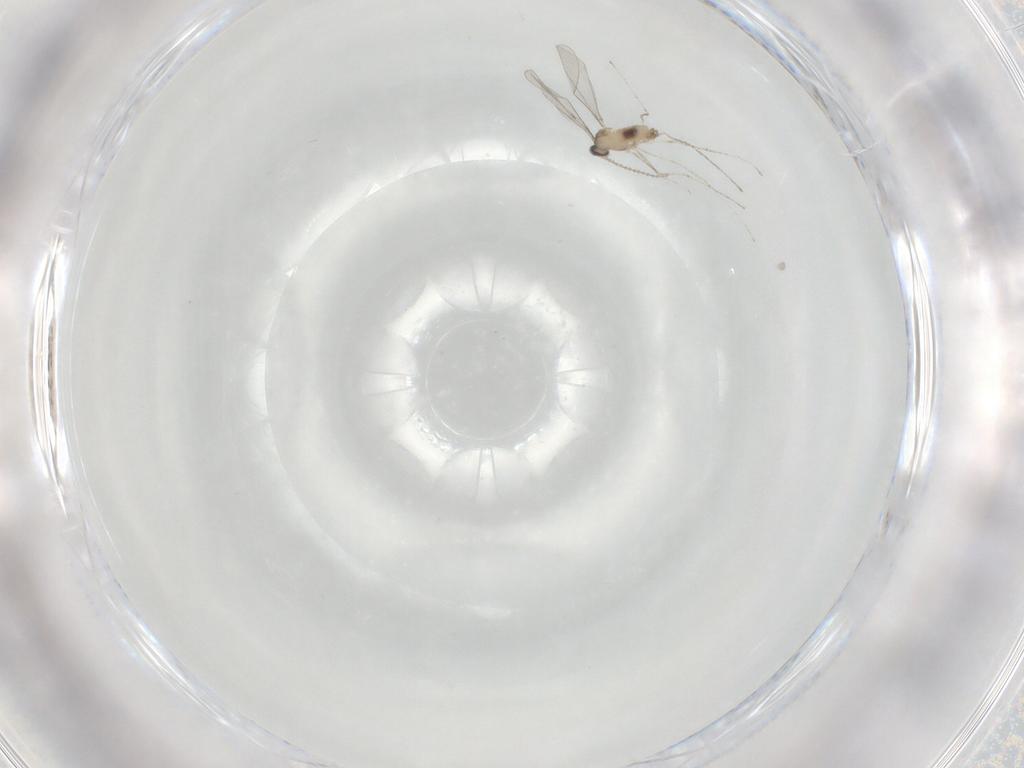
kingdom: Animalia
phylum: Arthropoda
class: Insecta
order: Diptera
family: Cecidomyiidae
